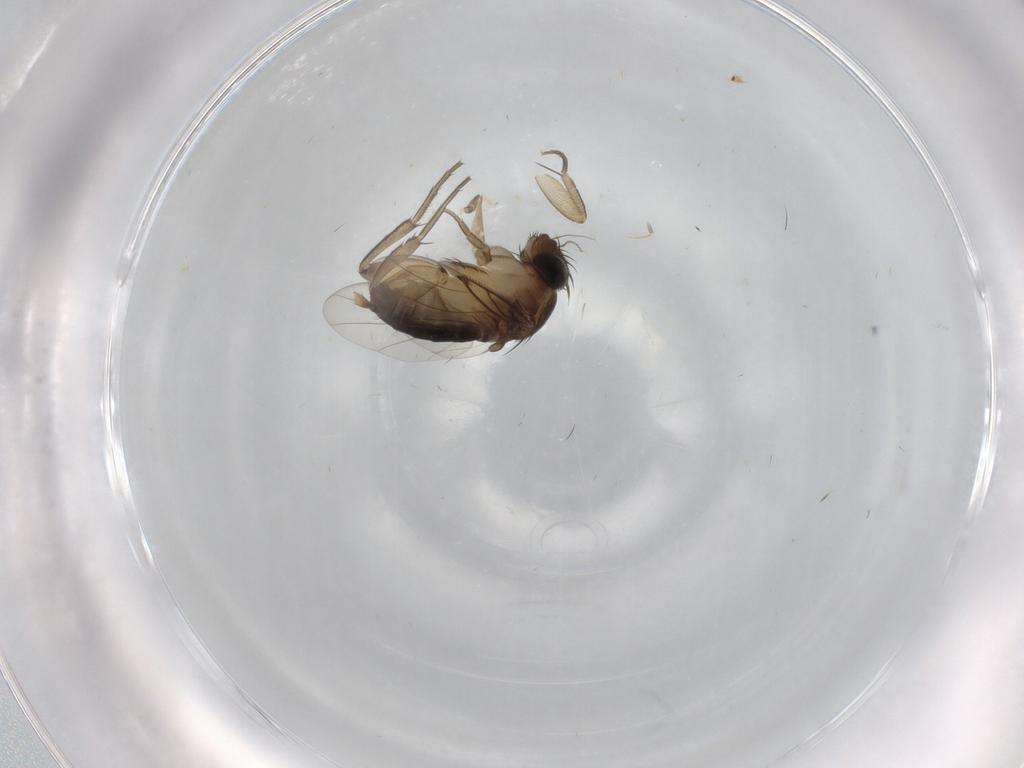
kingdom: Animalia
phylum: Arthropoda
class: Insecta
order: Diptera
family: Phoridae
